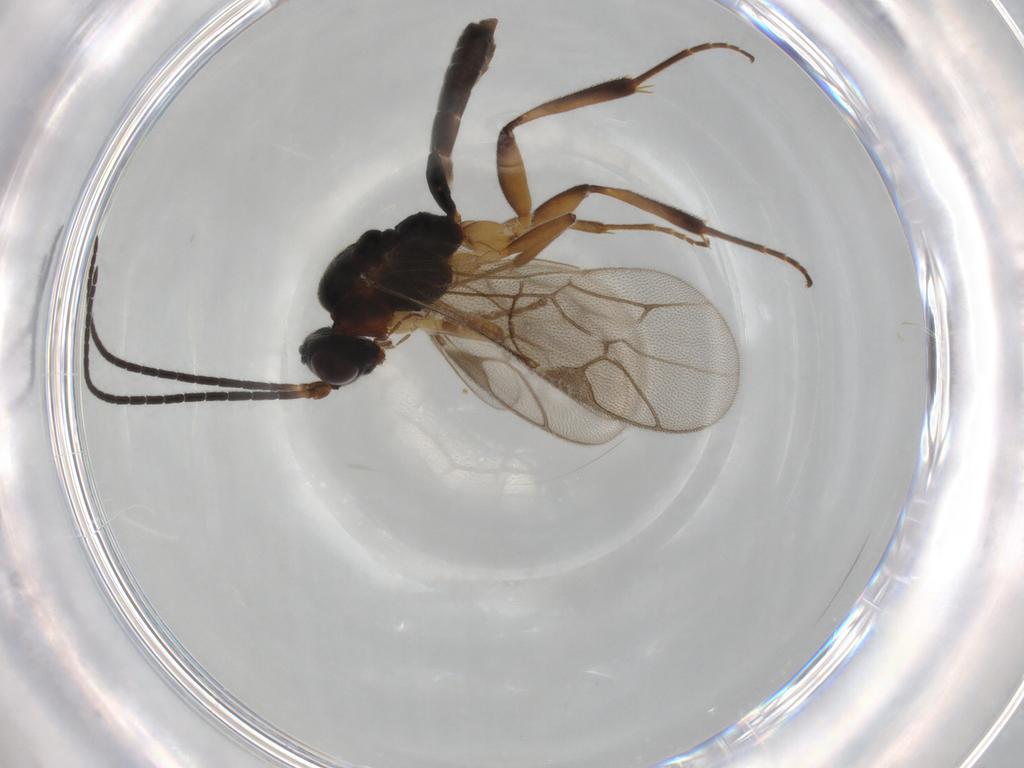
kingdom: Animalia
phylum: Arthropoda
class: Insecta
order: Hymenoptera
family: Ichneumonidae
